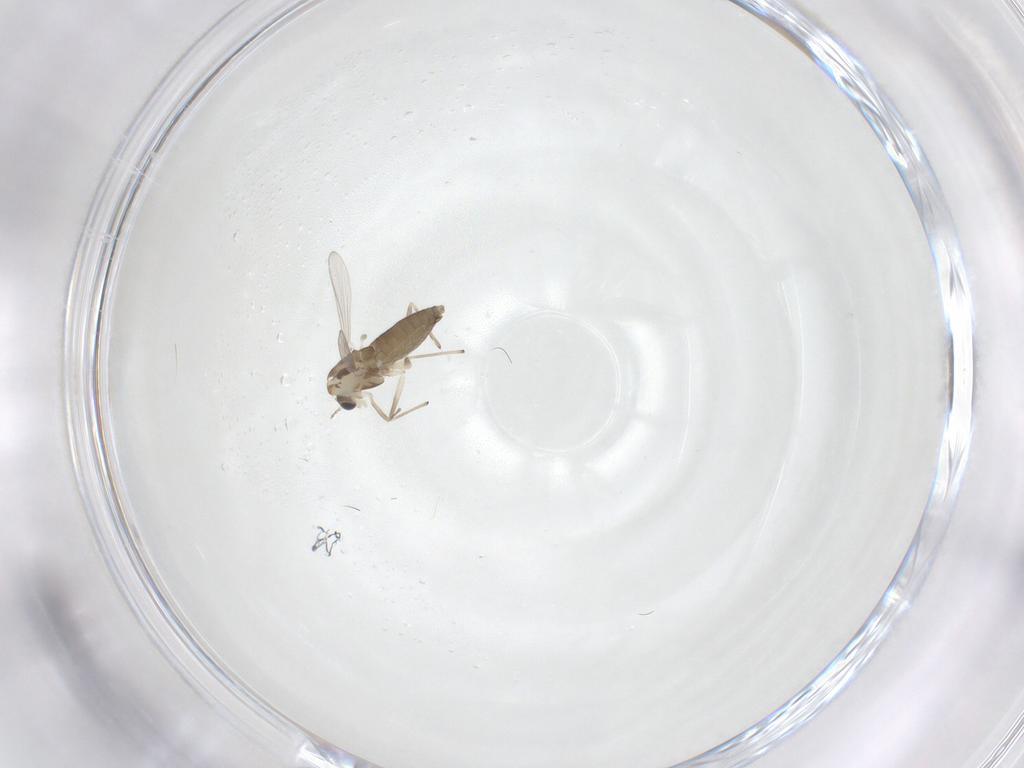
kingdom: Animalia
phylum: Arthropoda
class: Insecta
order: Diptera
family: Chironomidae
